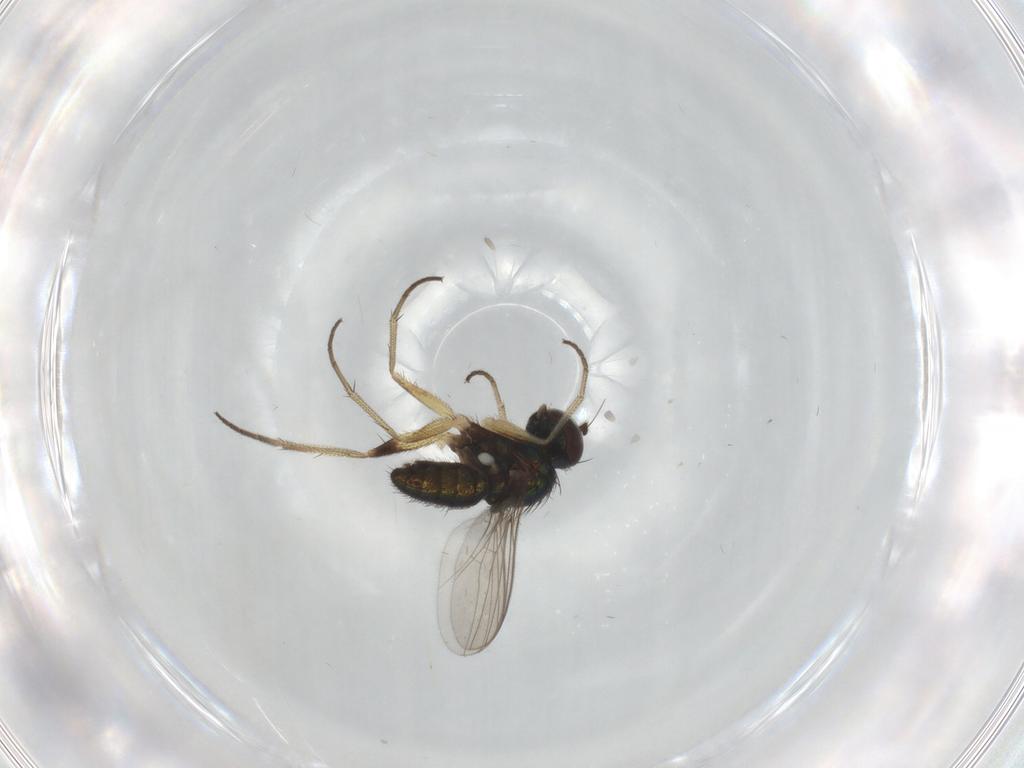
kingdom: Animalia
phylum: Arthropoda
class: Insecta
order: Diptera
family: Dolichopodidae
